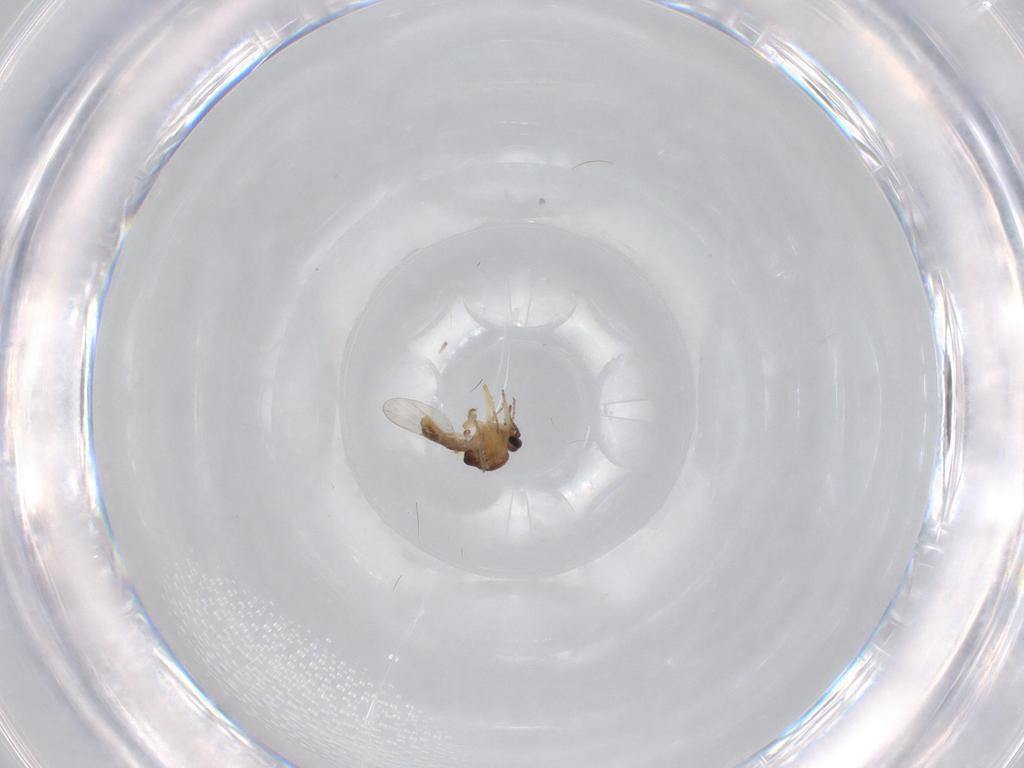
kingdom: Animalia
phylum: Arthropoda
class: Insecta
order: Diptera
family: Ceratopogonidae
